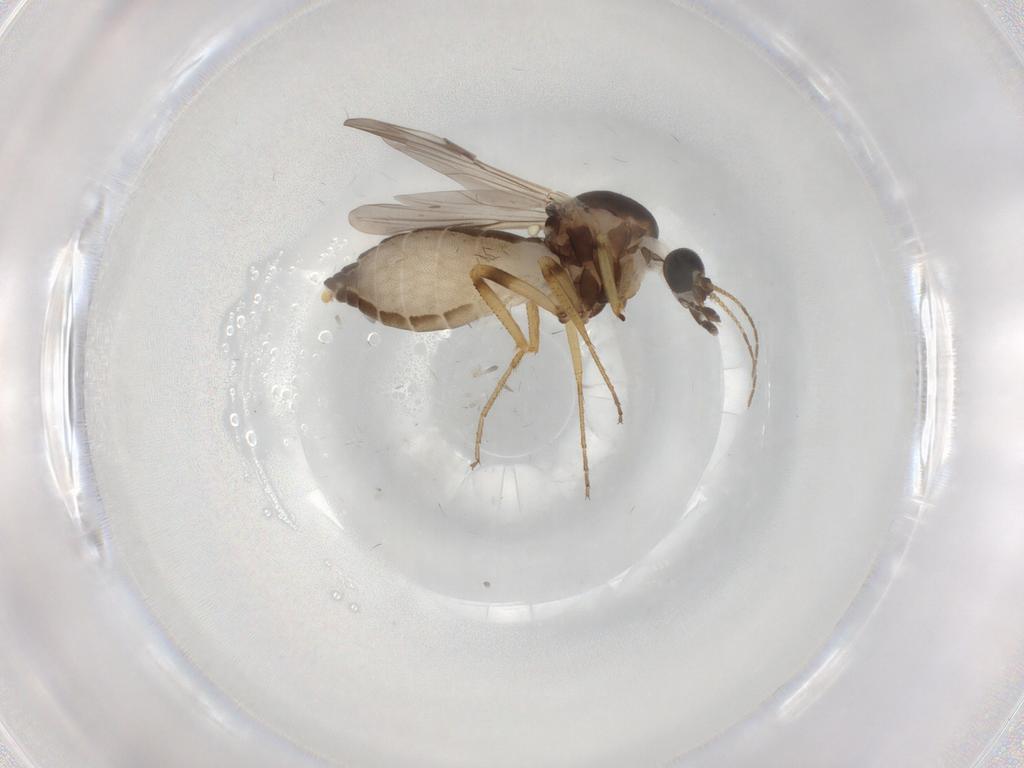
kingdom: Animalia
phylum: Arthropoda
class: Insecta
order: Diptera
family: Ceratopogonidae
